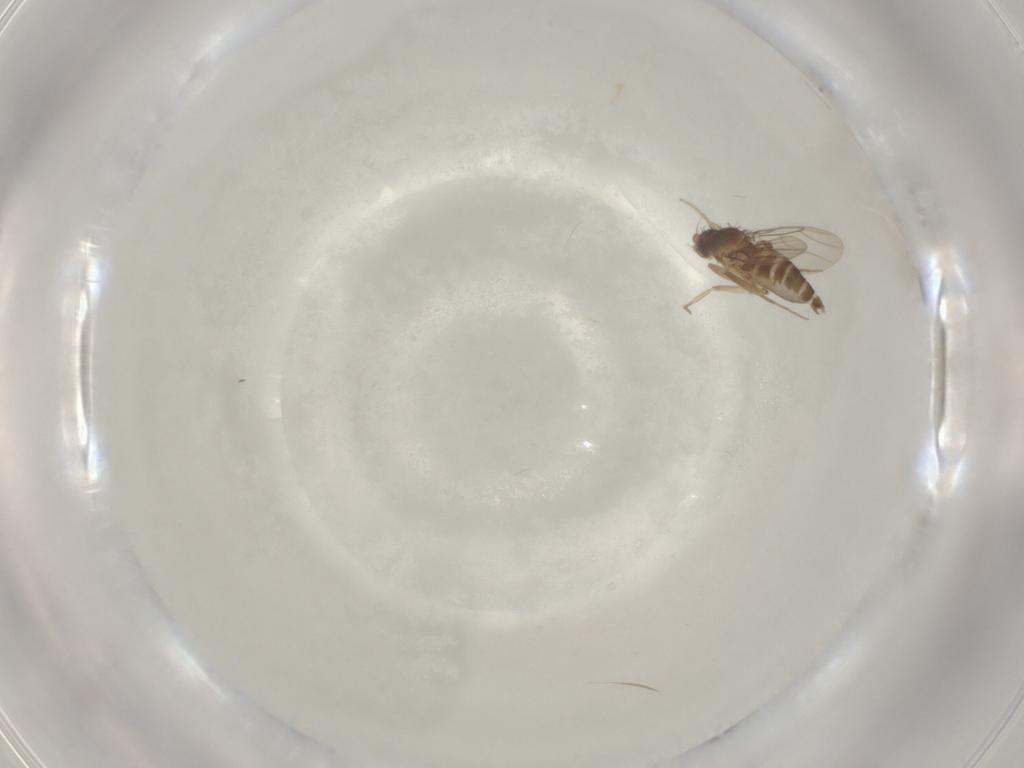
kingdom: Animalia
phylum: Arthropoda
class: Insecta
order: Diptera
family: Phoridae
